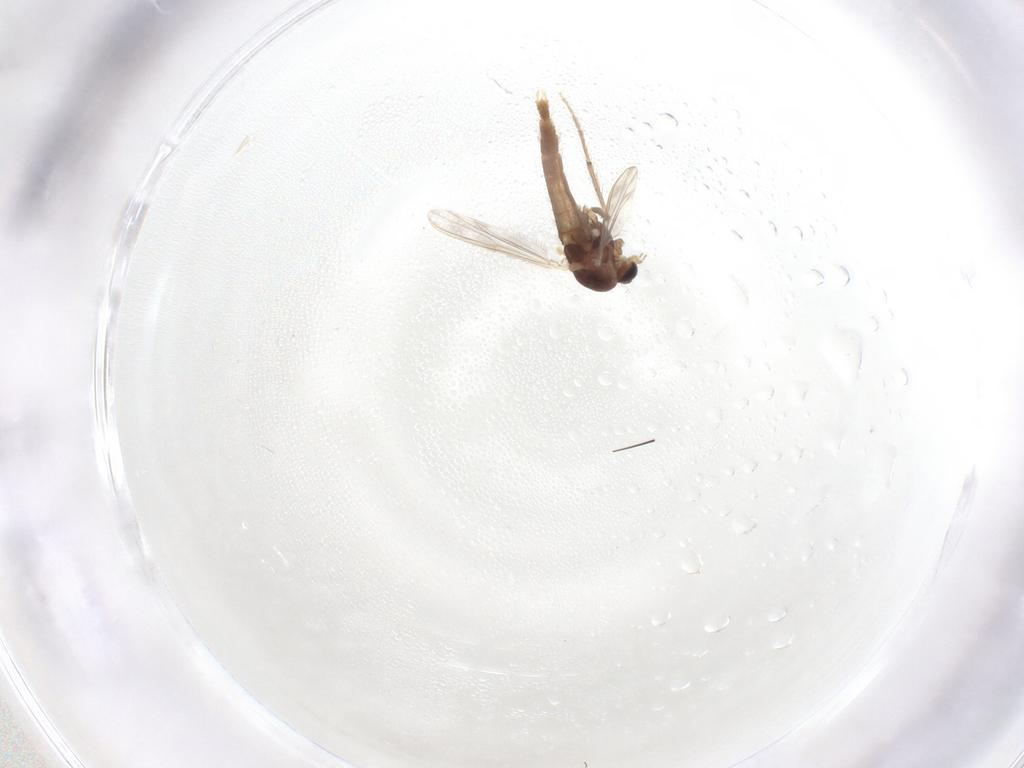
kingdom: Animalia
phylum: Arthropoda
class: Insecta
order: Diptera
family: Chironomidae
